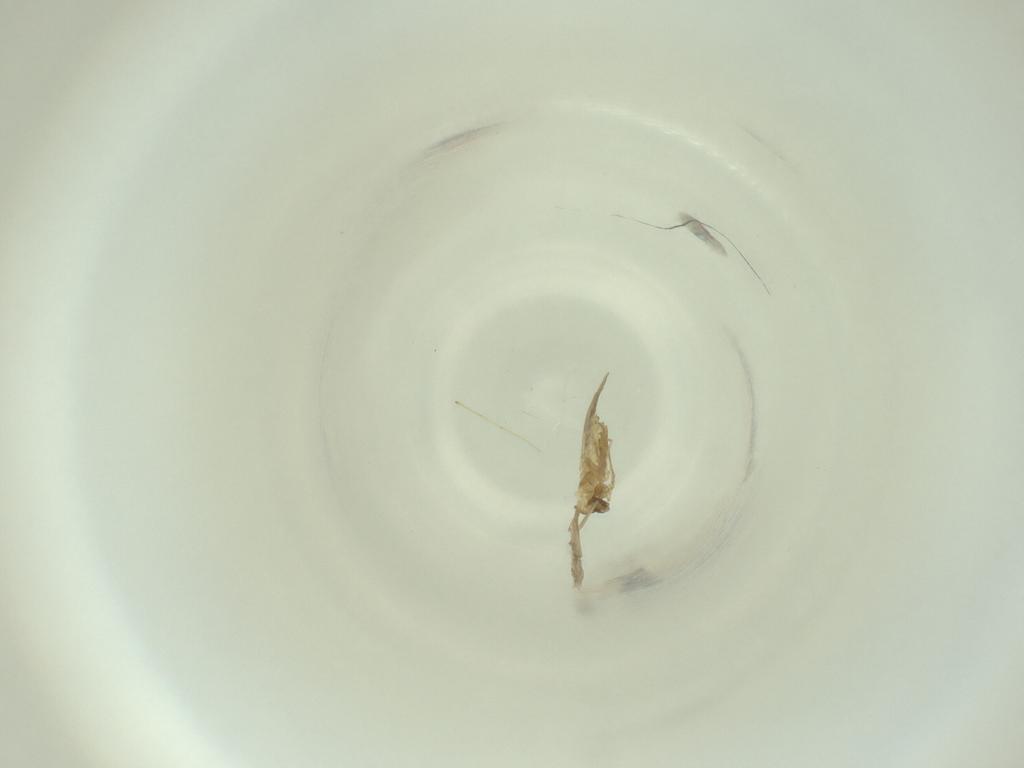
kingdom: Animalia
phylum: Arthropoda
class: Insecta
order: Diptera
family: Cecidomyiidae
